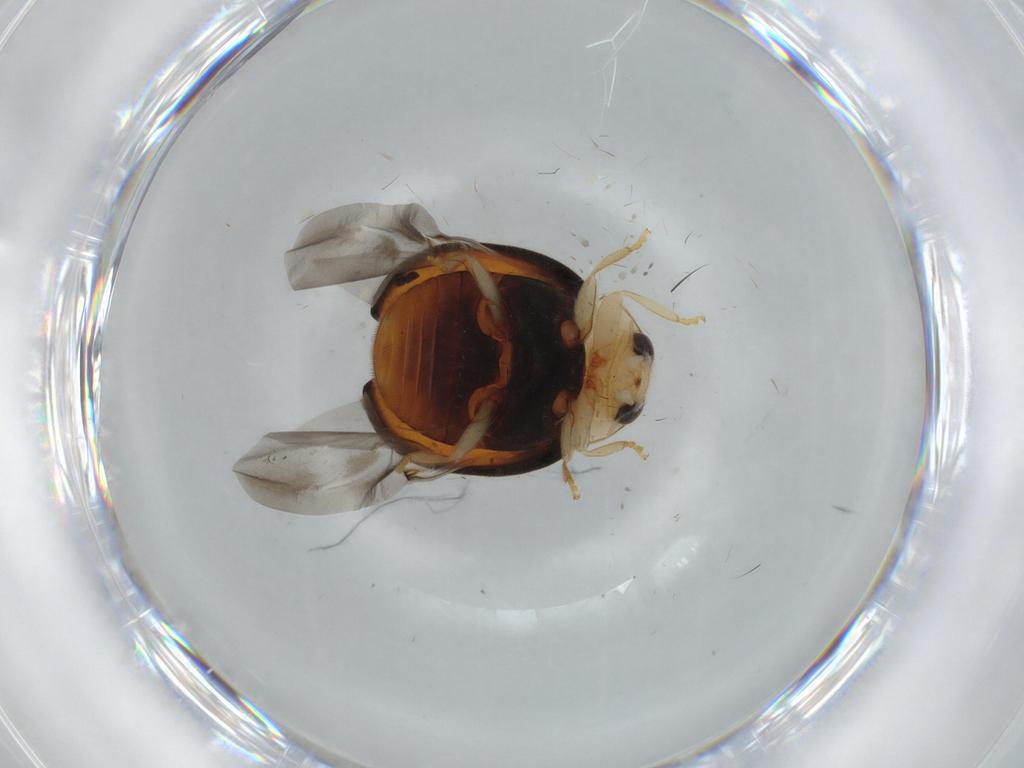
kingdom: Animalia
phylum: Arthropoda
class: Insecta
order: Coleoptera
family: Coccinellidae
